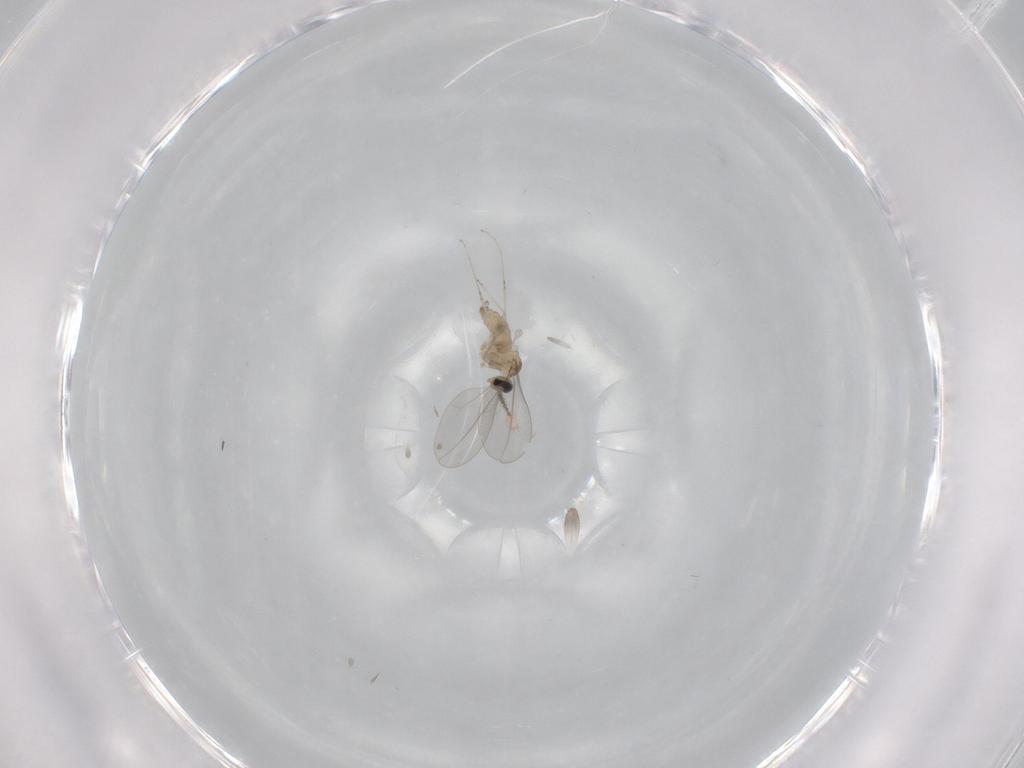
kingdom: Animalia
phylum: Arthropoda
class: Insecta
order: Diptera
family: Cecidomyiidae
